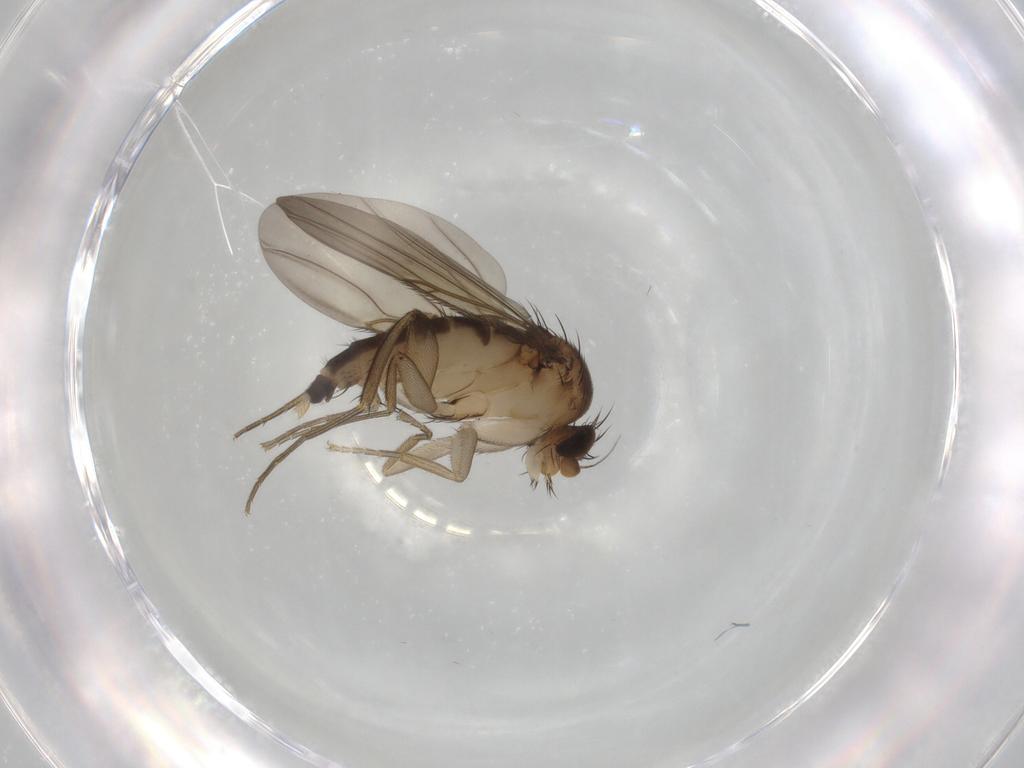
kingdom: Animalia
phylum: Arthropoda
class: Insecta
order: Diptera
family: Phoridae
